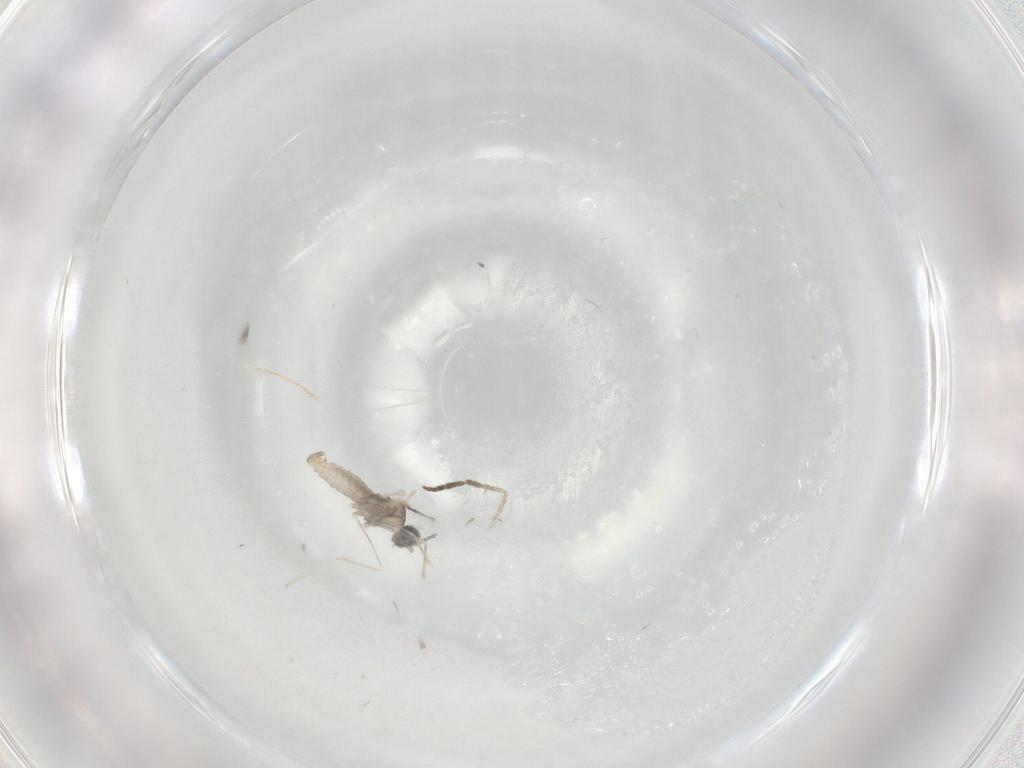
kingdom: Animalia
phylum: Arthropoda
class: Insecta
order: Diptera
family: Cecidomyiidae
